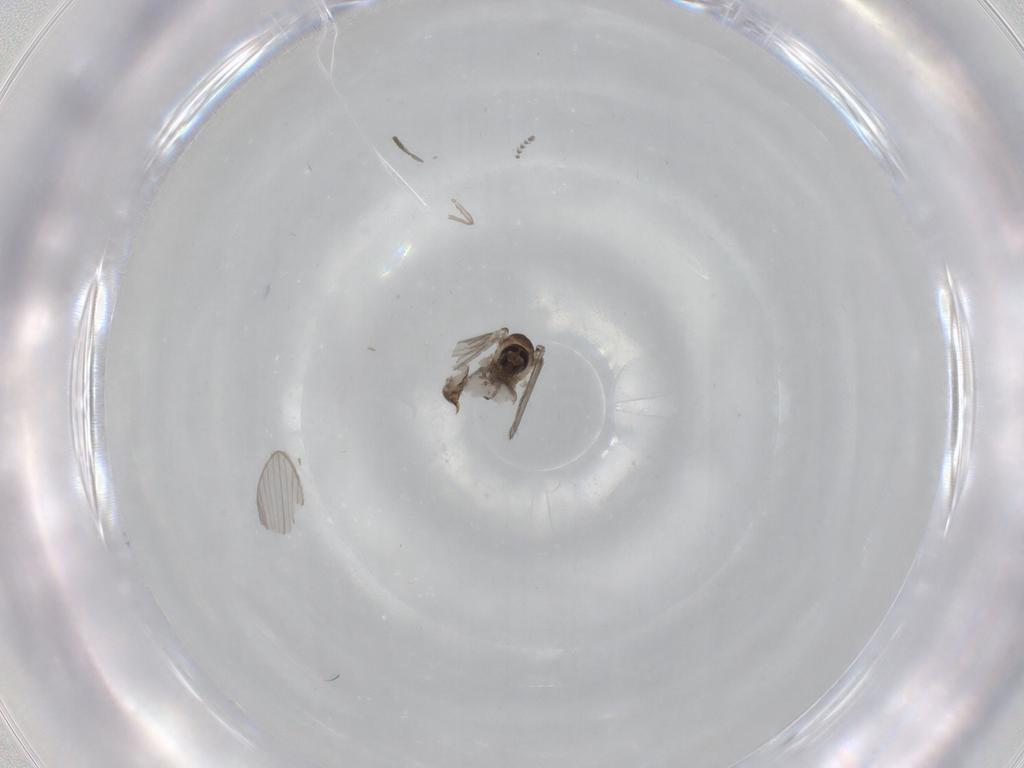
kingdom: Animalia
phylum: Arthropoda
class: Insecta
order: Diptera
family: Psychodidae
